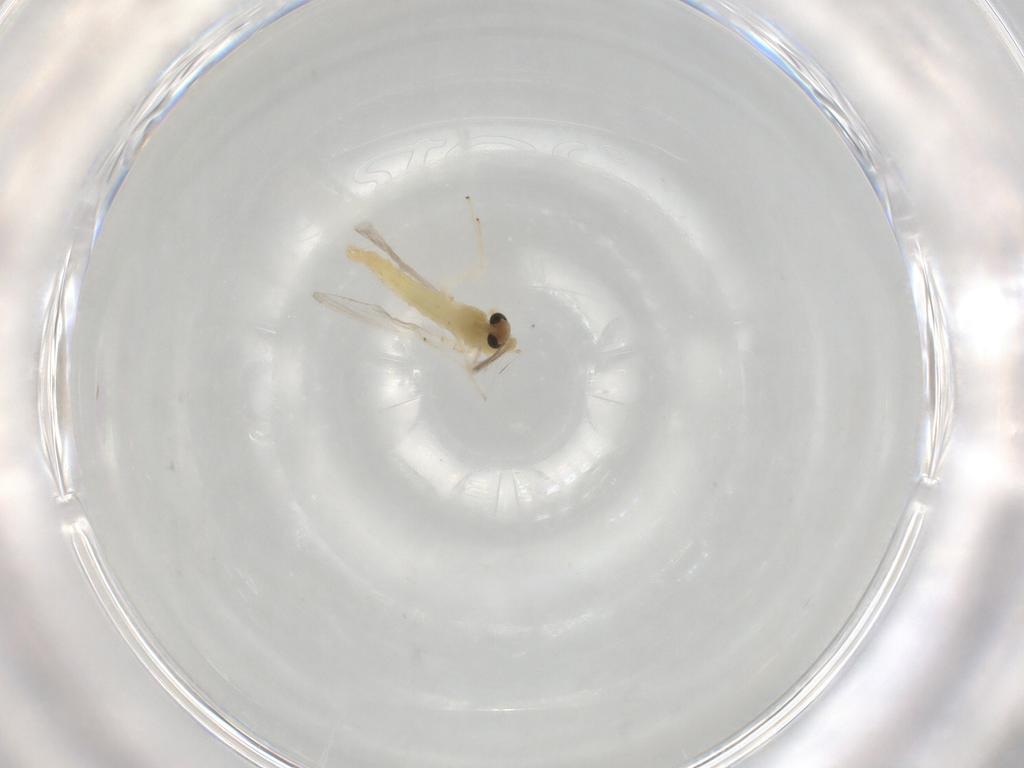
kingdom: Animalia
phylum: Arthropoda
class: Insecta
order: Diptera
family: Chironomidae
